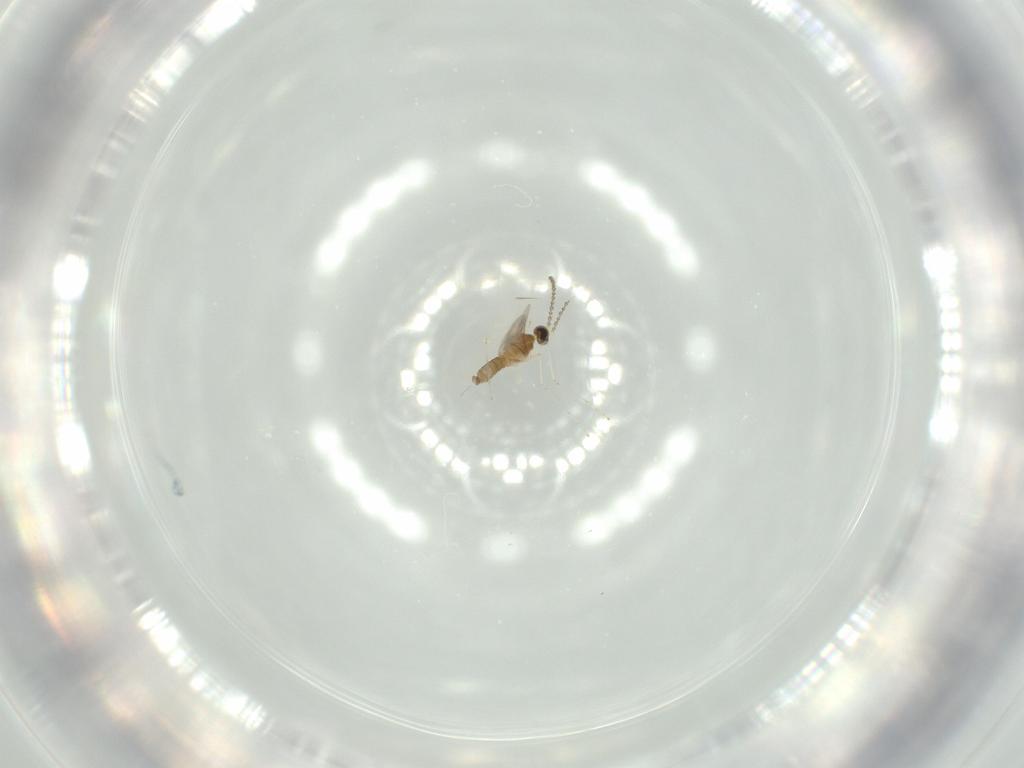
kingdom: Animalia
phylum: Arthropoda
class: Insecta
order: Diptera
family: Cecidomyiidae
